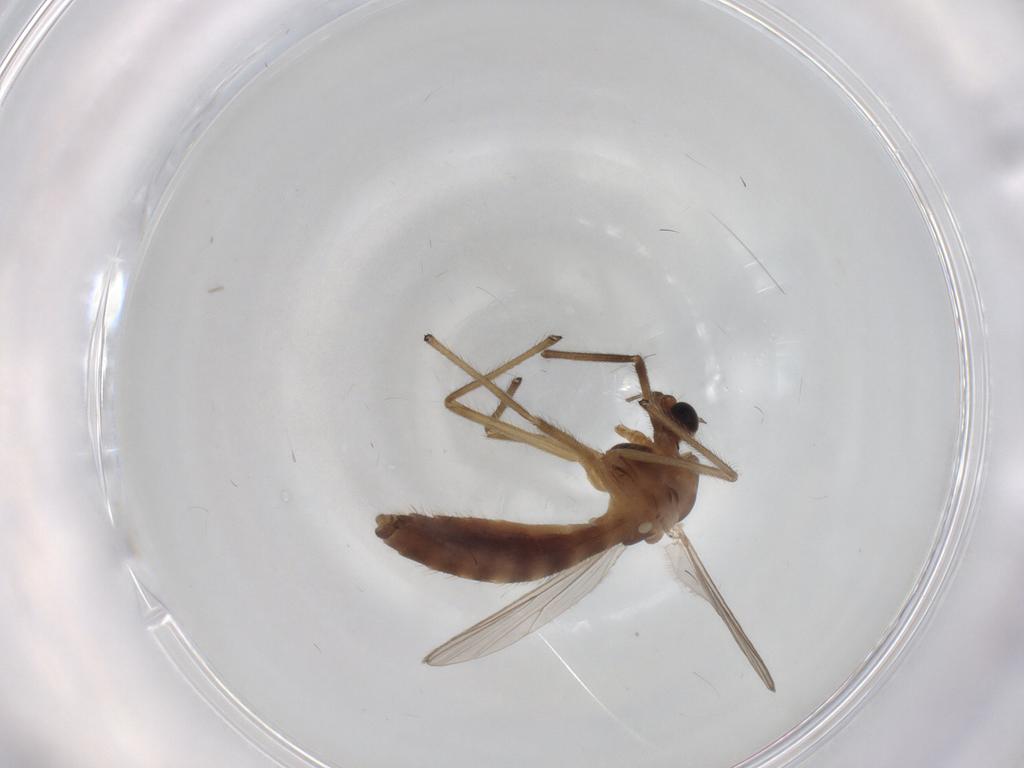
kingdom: Animalia
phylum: Arthropoda
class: Insecta
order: Diptera
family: Chironomidae
